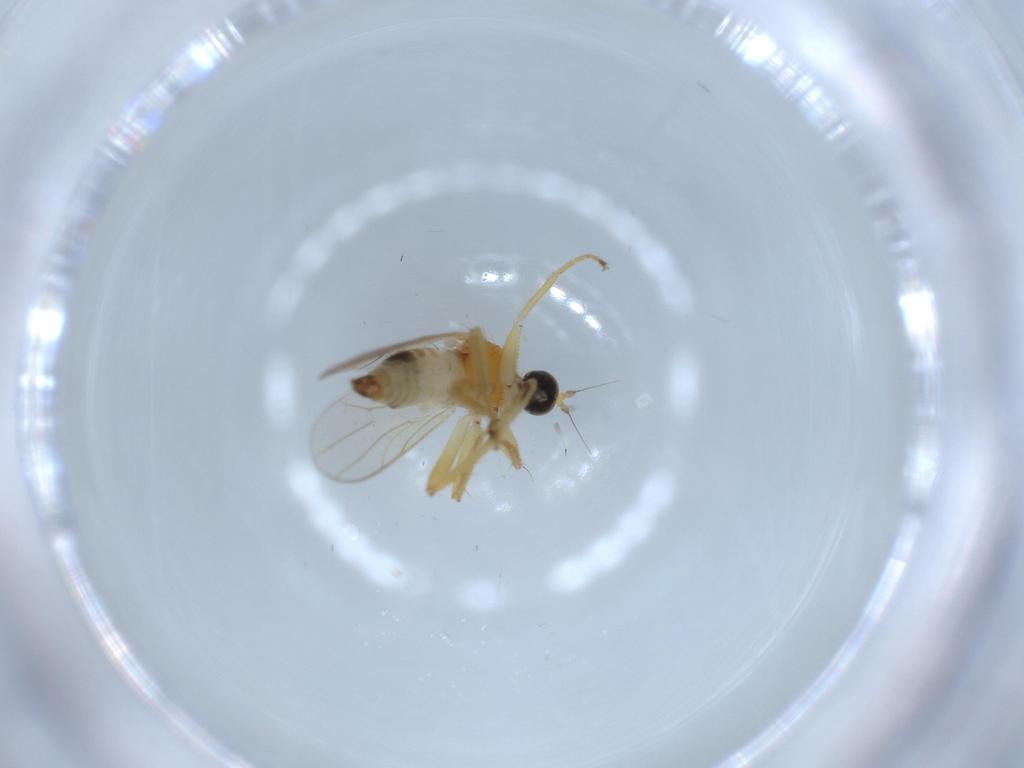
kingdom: Animalia
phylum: Arthropoda
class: Insecta
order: Diptera
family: Hybotidae
